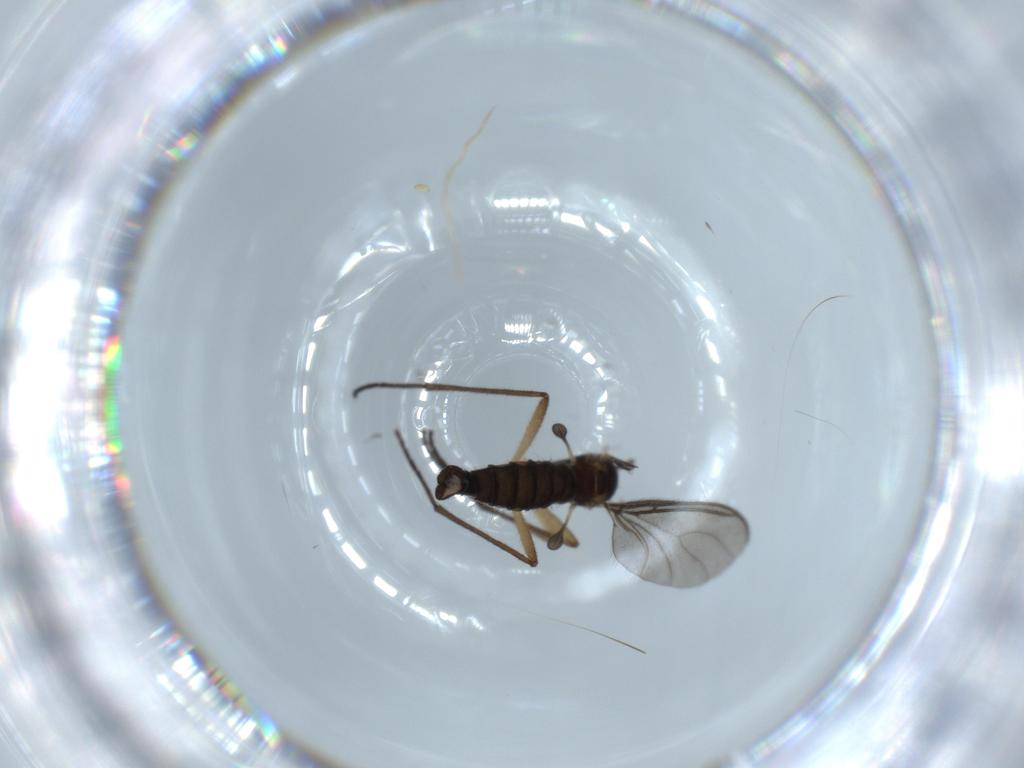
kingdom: Animalia
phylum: Arthropoda
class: Insecta
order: Diptera
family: Sciaridae
